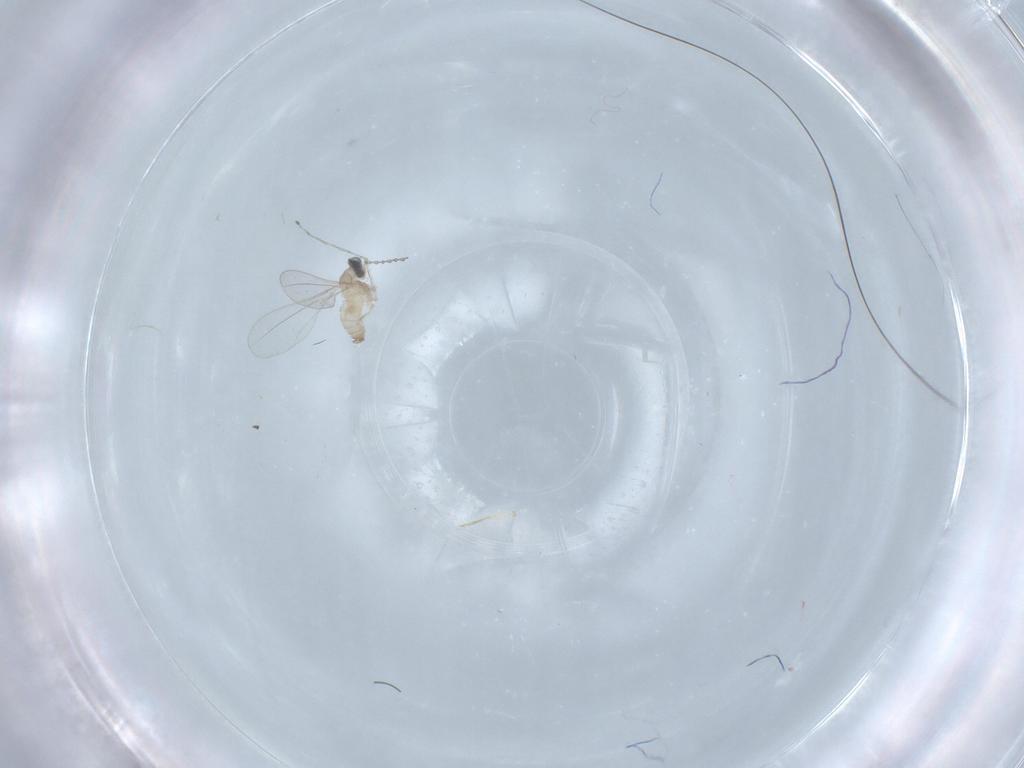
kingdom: Animalia
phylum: Arthropoda
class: Insecta
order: Diptera
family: Cecidomyiidae
